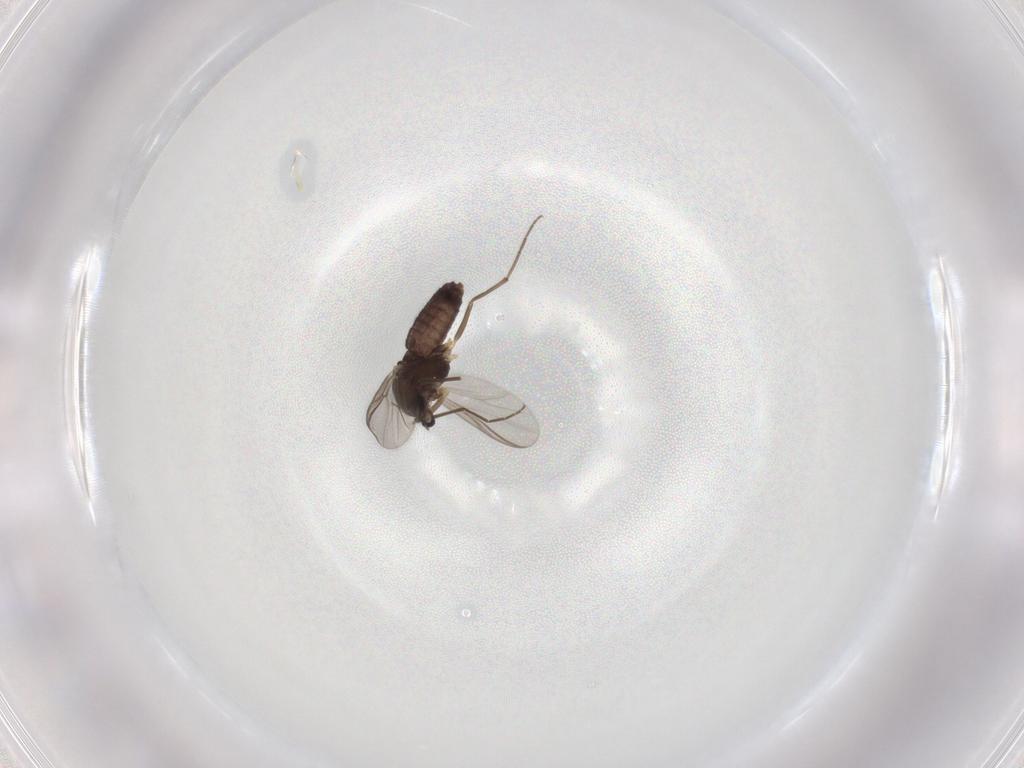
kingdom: Animalia
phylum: Arthropoda
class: Insecta
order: Diptera
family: Chironomidae
